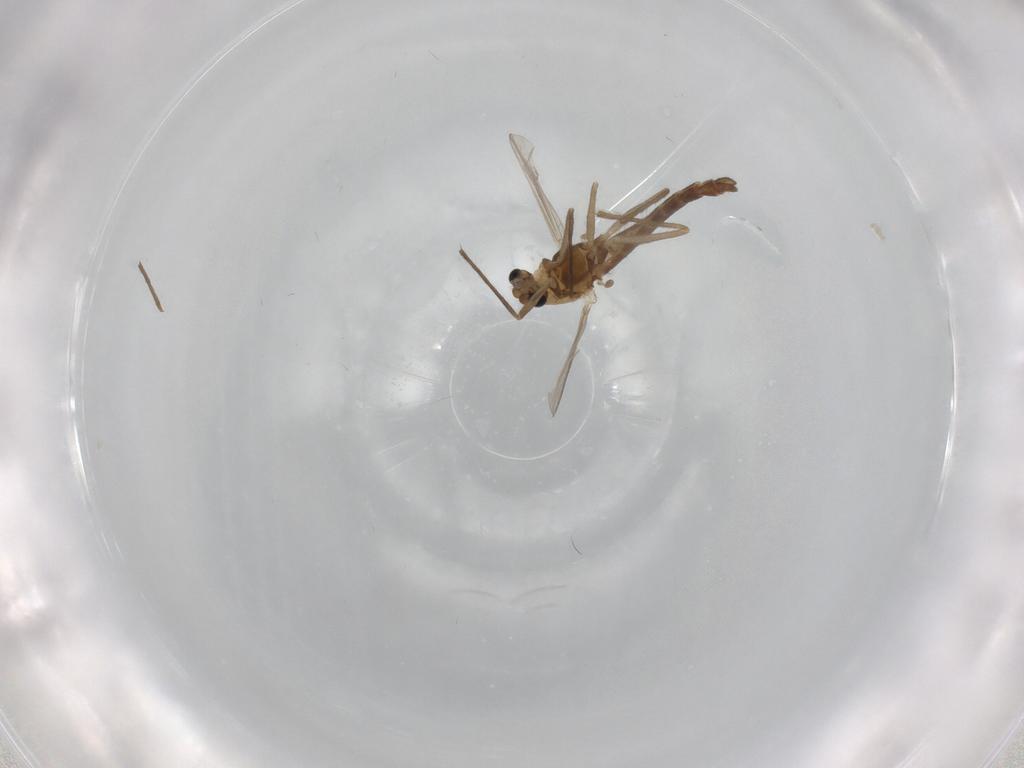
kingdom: Animalia
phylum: Arthropoda
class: Insecta
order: Diptera
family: Chironomidae
